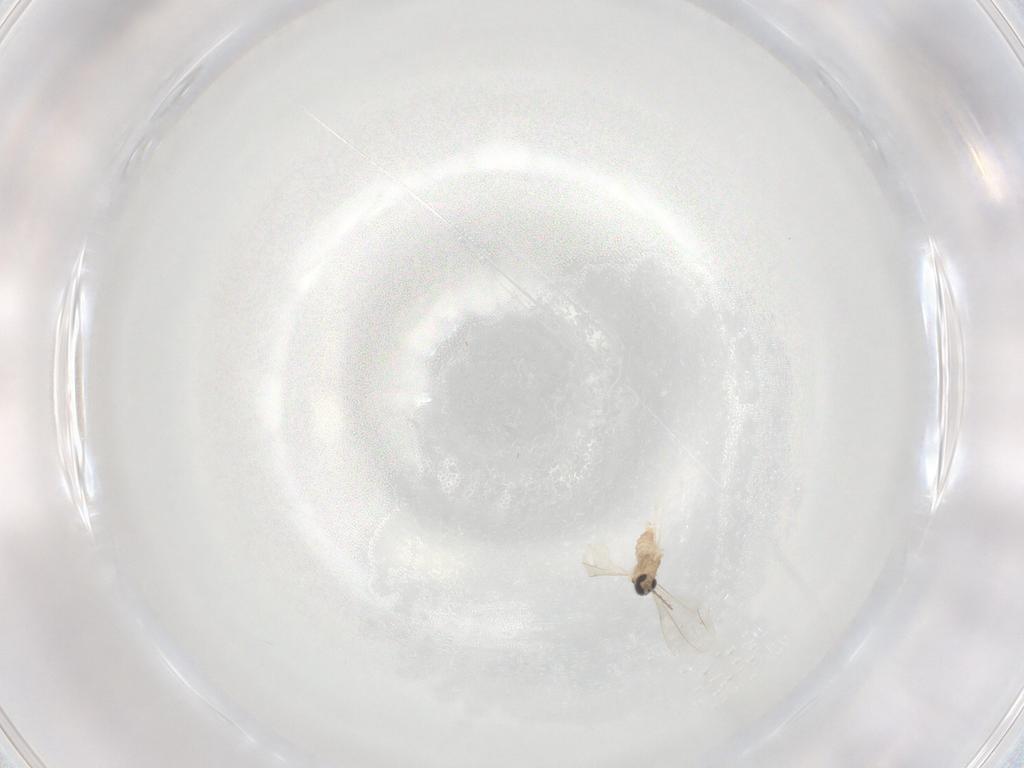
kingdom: Animalia
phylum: Arthropoda
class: Insecta
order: Diptera
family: Cecidomyiidae
